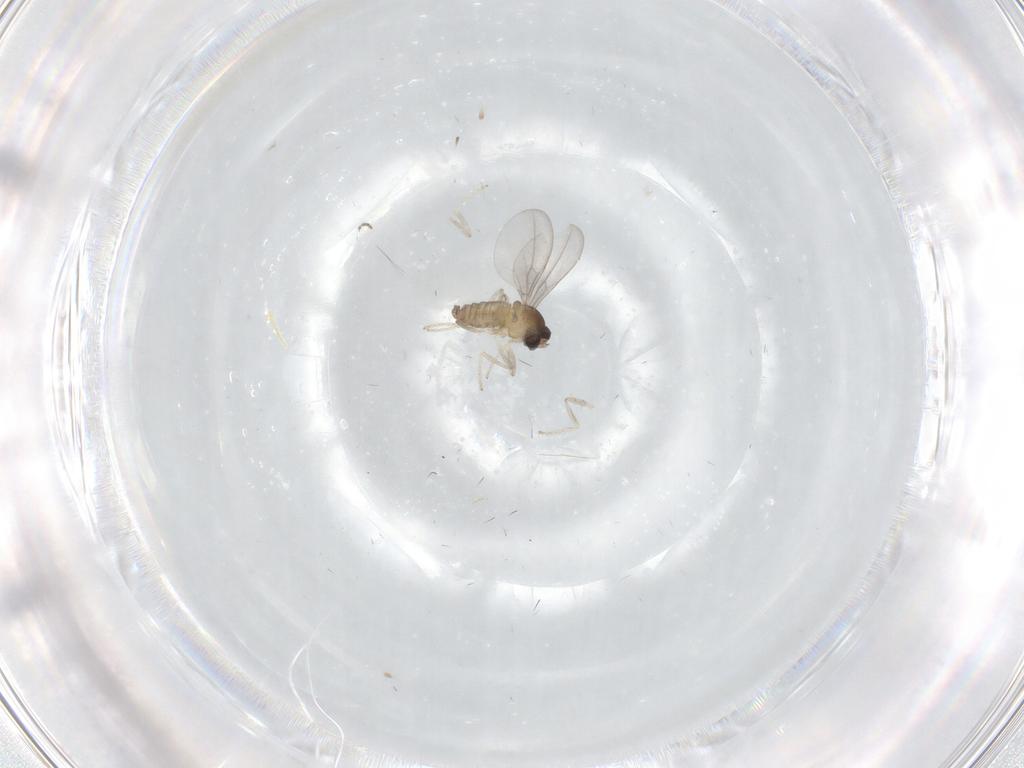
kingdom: Animalia
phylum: Arthropoda
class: Insecta
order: Diptera
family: Cecidomyiidae
